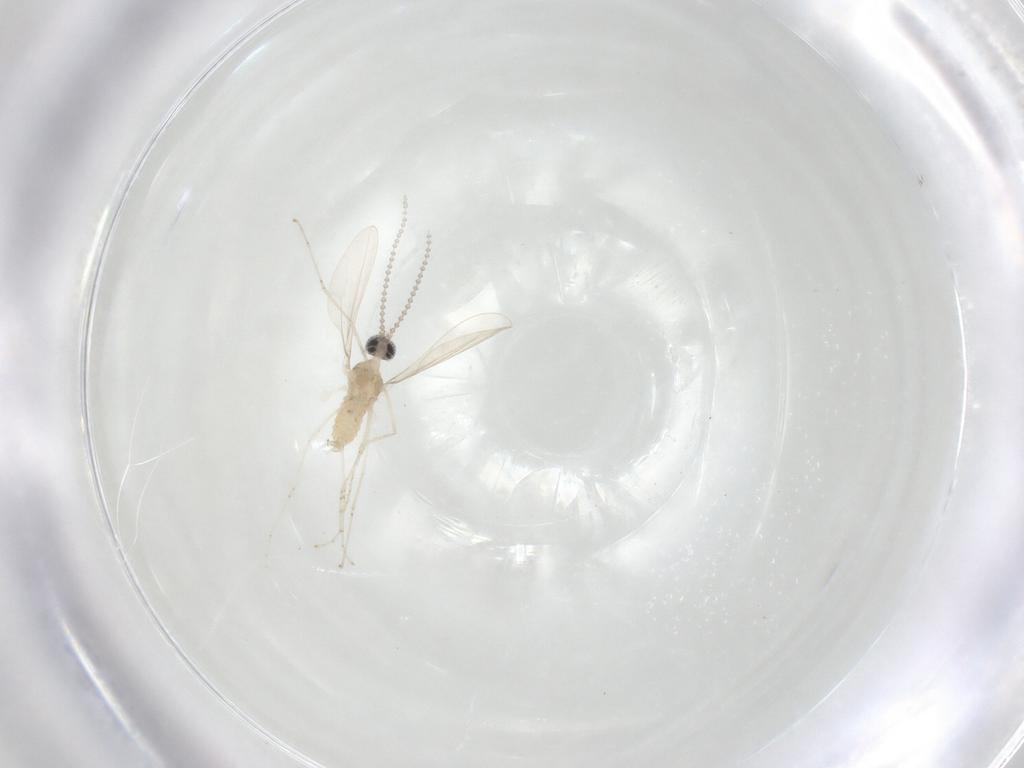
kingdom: Animalia
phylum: Arthropoda
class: Insecta
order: Diptera
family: Cecidomyiidae
